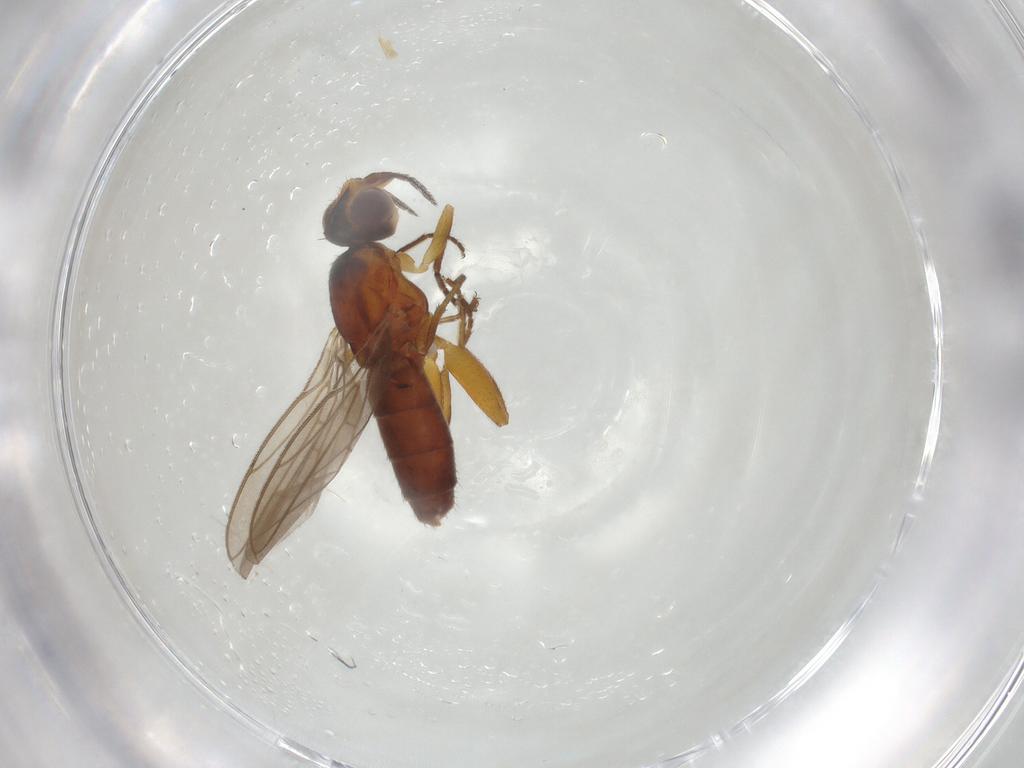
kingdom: Animalia
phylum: Arthropoda
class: Insecta
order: Diptera
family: Chloropidae
